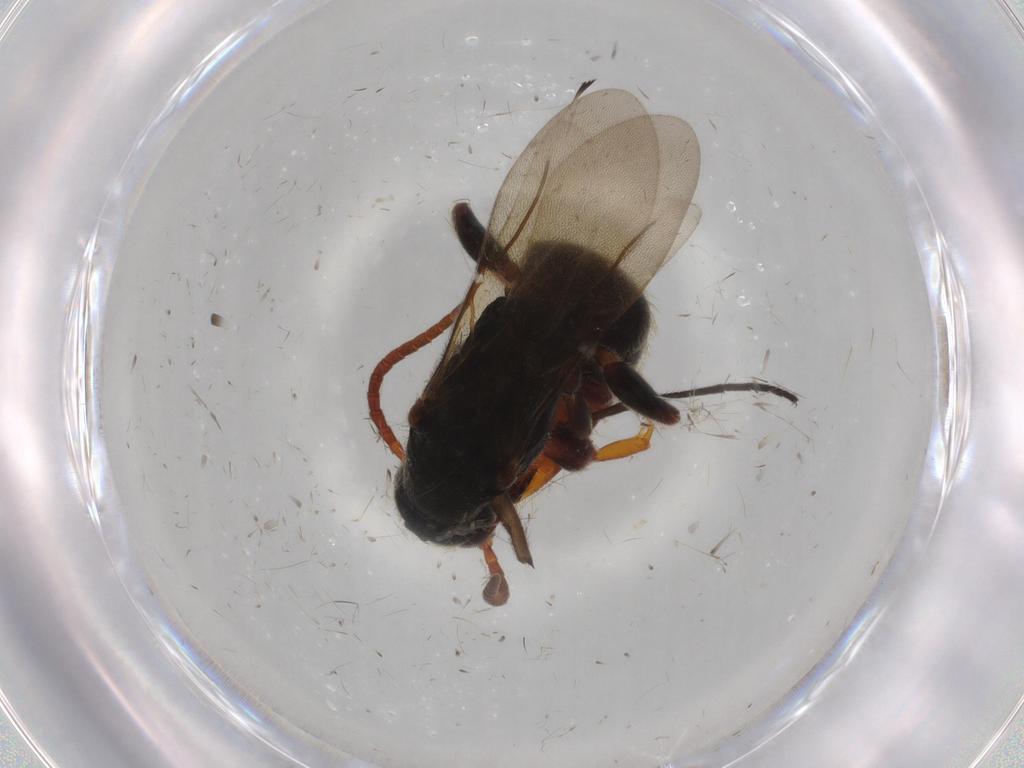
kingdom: Animalia
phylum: Arthropoda
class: Insecta
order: Hymenoptera
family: Bethylidae
